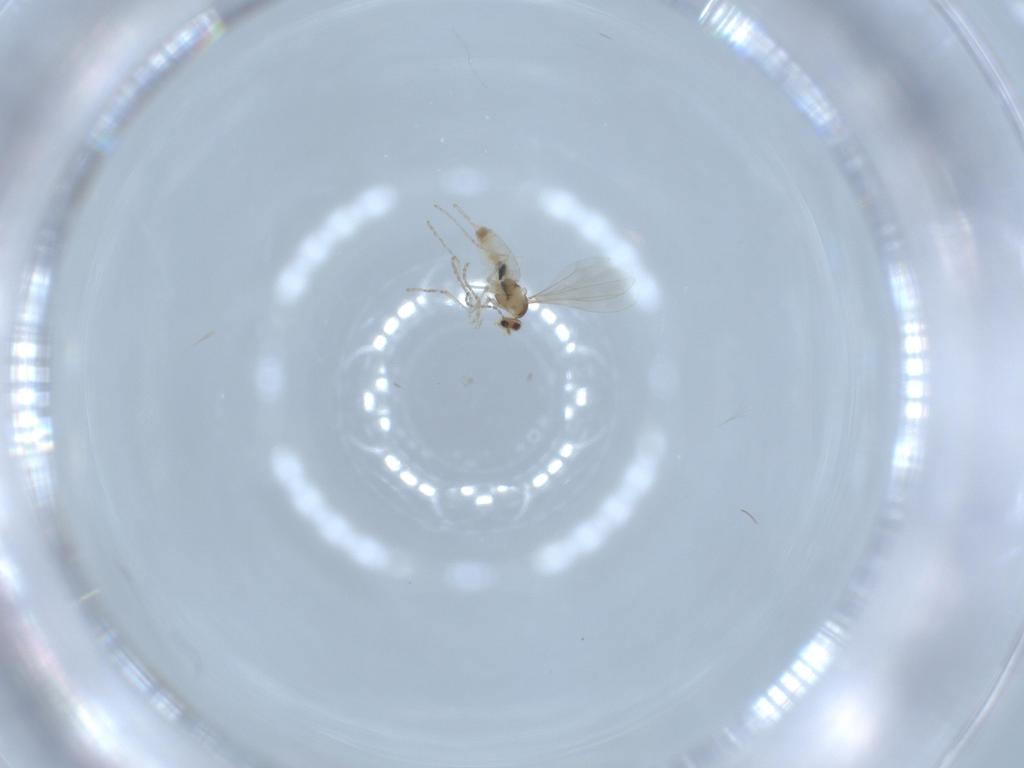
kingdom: Animalia
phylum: Arthropoda
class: Insecta
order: Diptera
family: Cecidomyiidae
